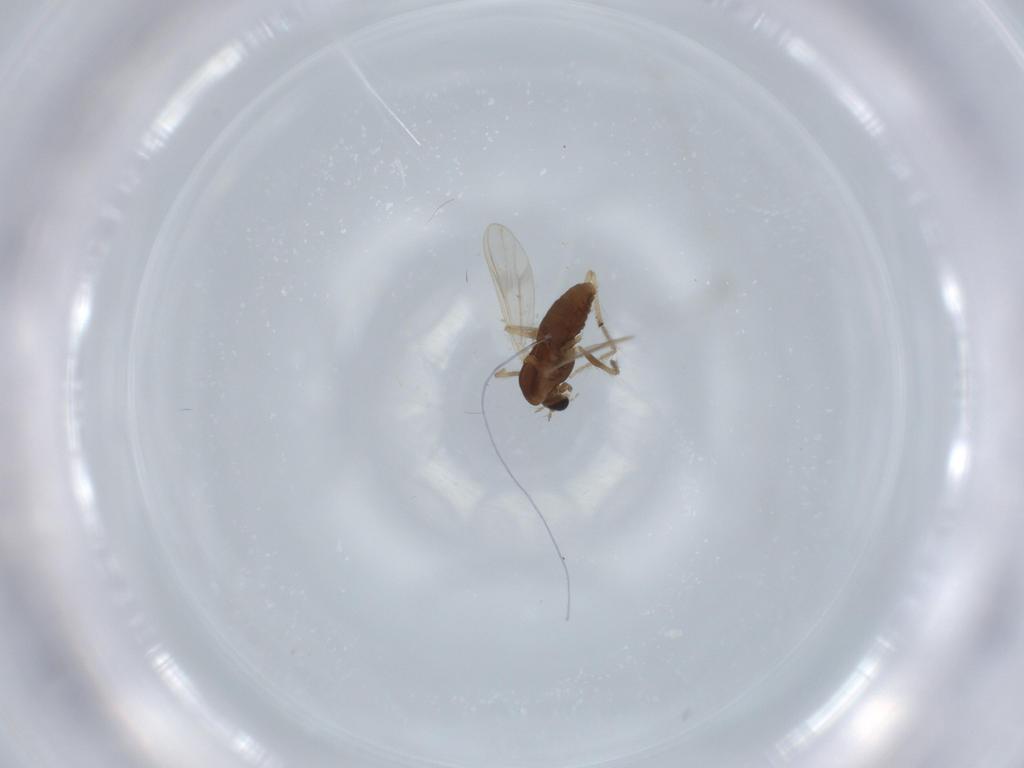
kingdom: Animalia
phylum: Arthropoda
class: Insecta
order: Diptera
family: Chironomidae
